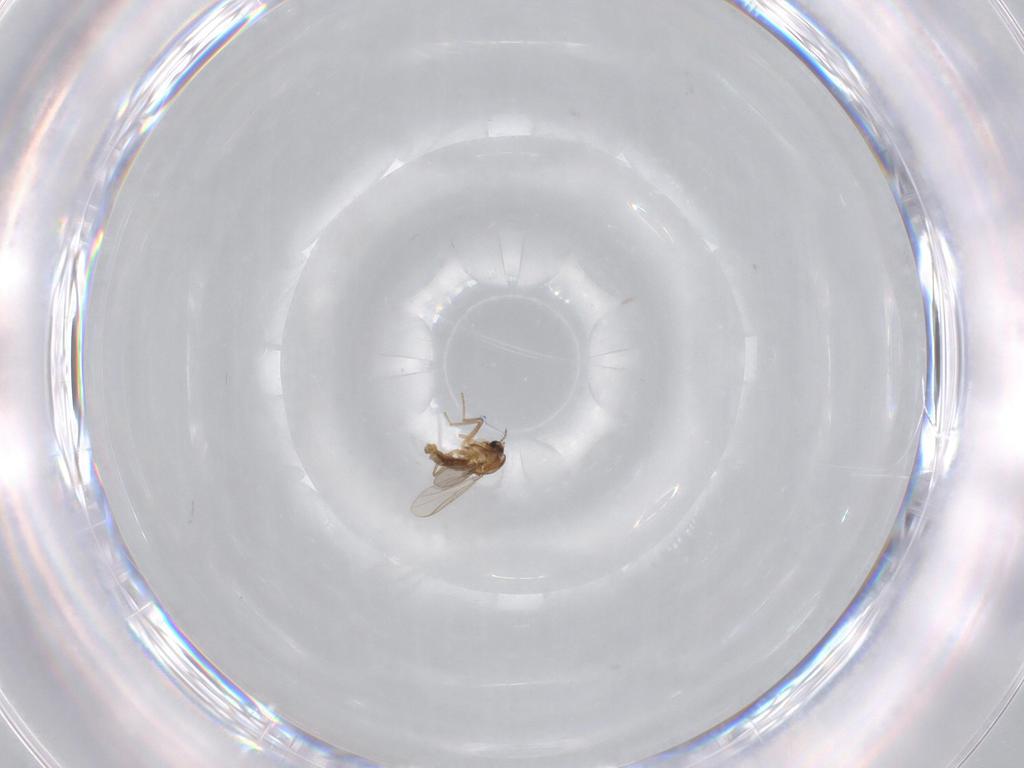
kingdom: Animalia
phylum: Arthropoda
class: Insecta
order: Diptera
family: Chironomidae
